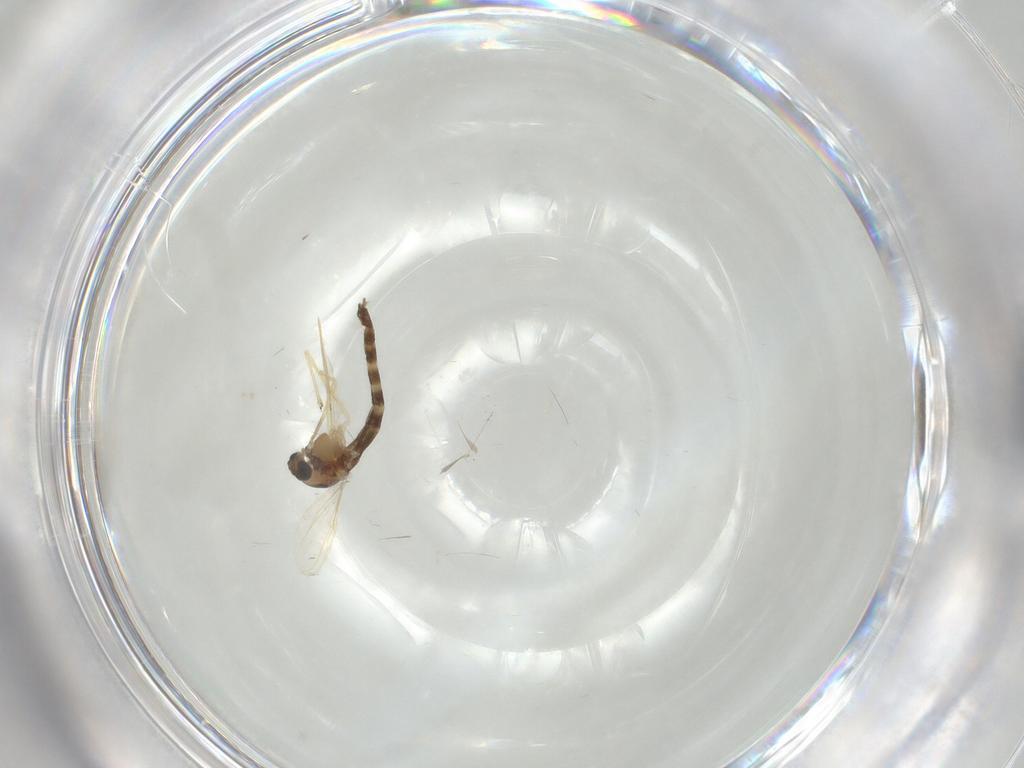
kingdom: Animalia
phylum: Arthropoda
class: Insecta
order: Diptera
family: Chironomidae
